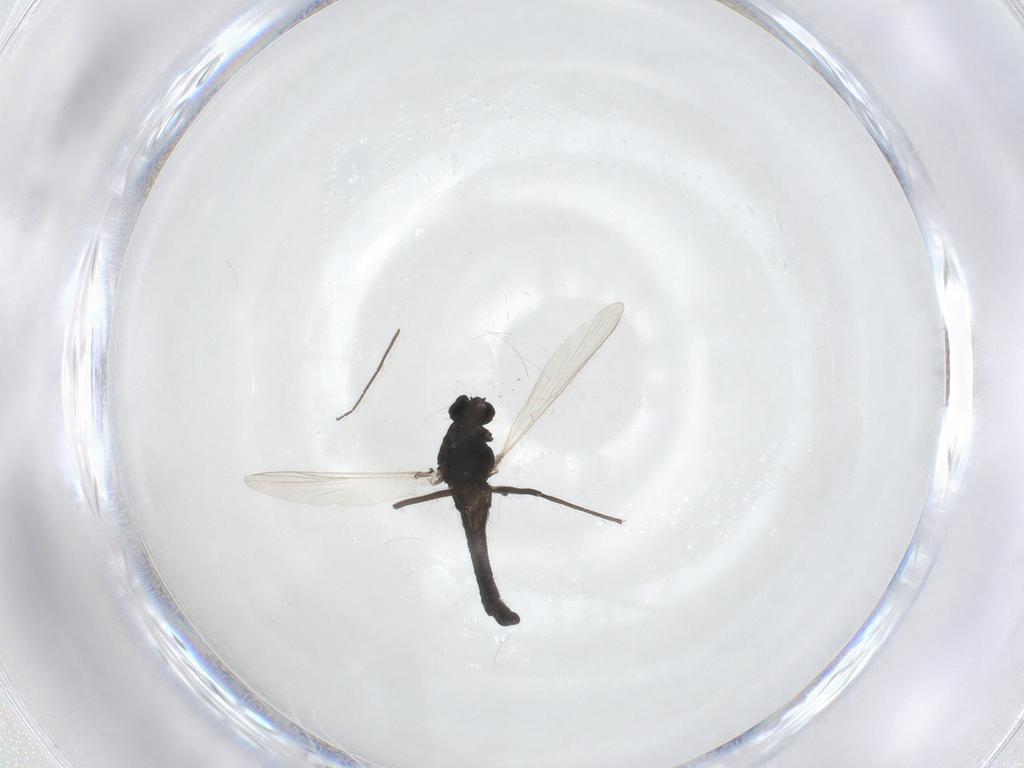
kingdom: Animalia
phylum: Arthropoda
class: Insecta
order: Diptera
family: Chironomidae
